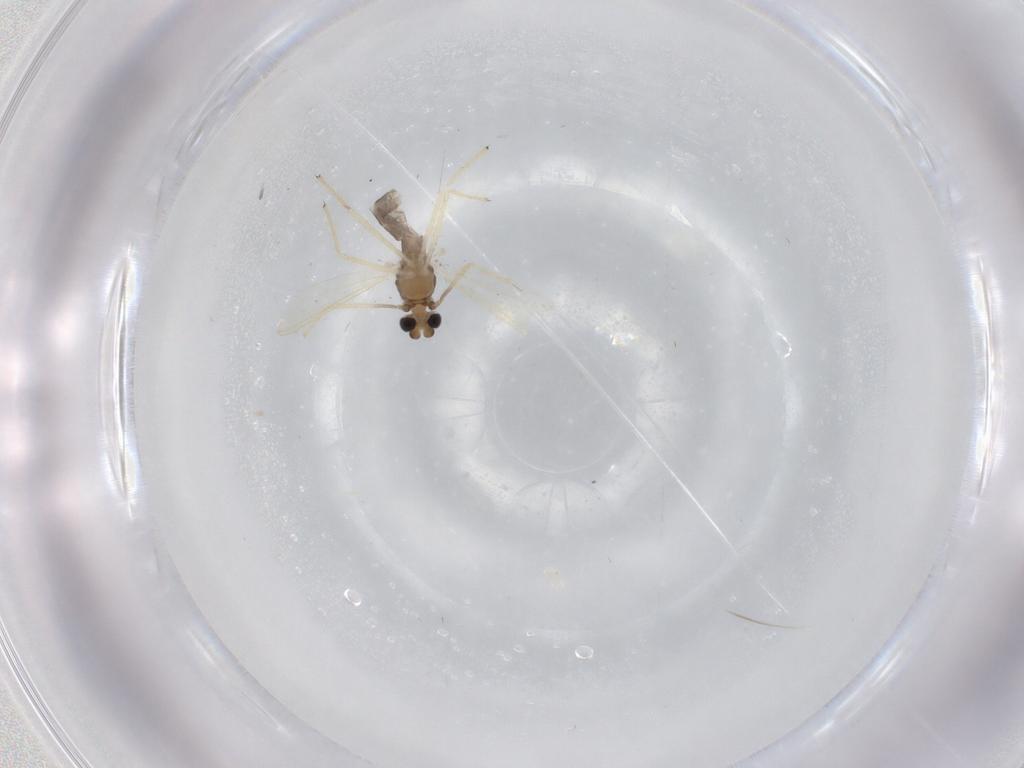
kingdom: Animalia
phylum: Arthropoda
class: Insecta
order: Diptera
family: Chironomidae
